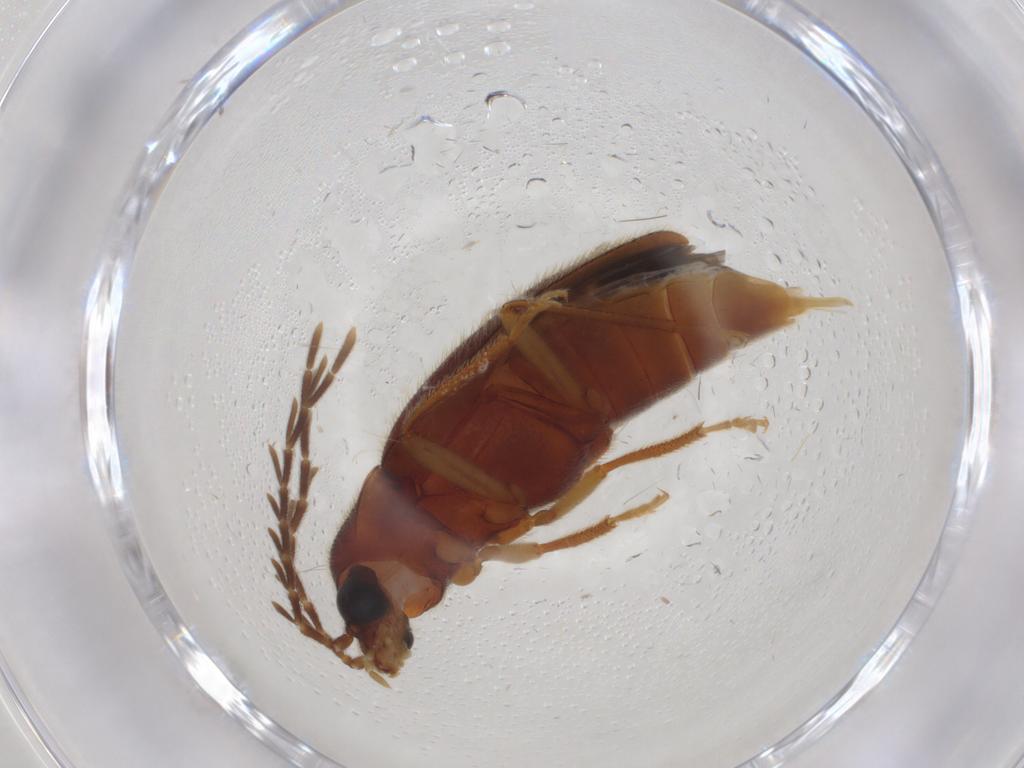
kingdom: Animalia
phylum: Arthropoda
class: Insecta
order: Coleoptera
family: Ptilodactylidae
